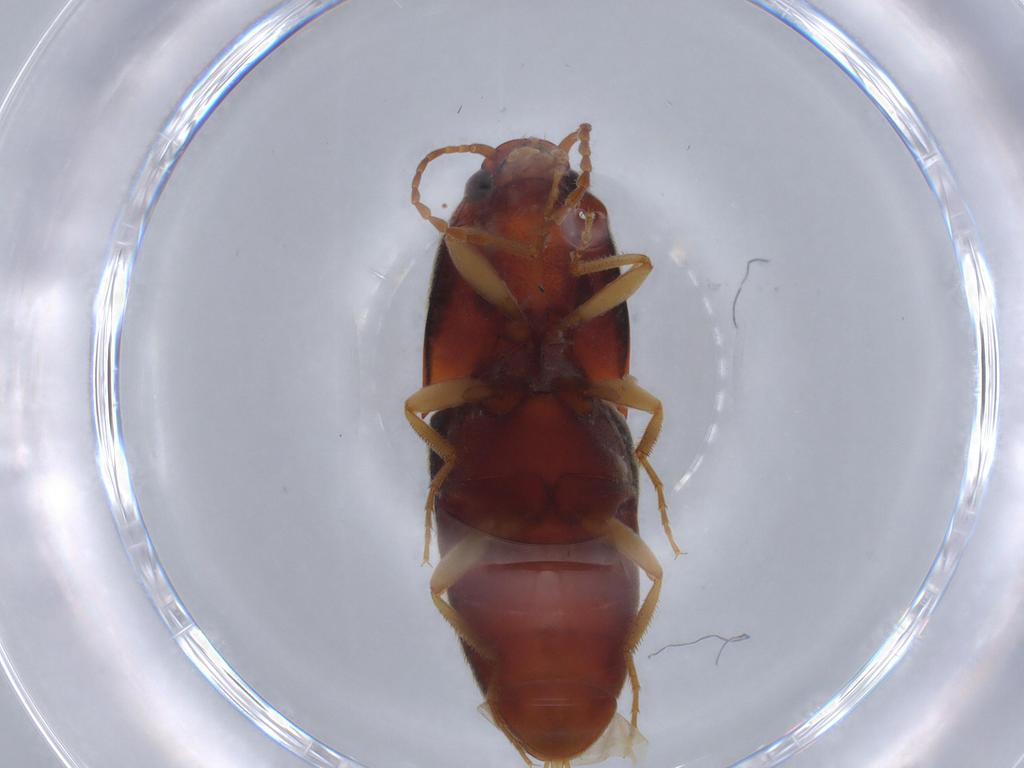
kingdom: Animalia
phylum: Arthropoda
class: Insecta
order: Coleoptera
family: Elateridae
